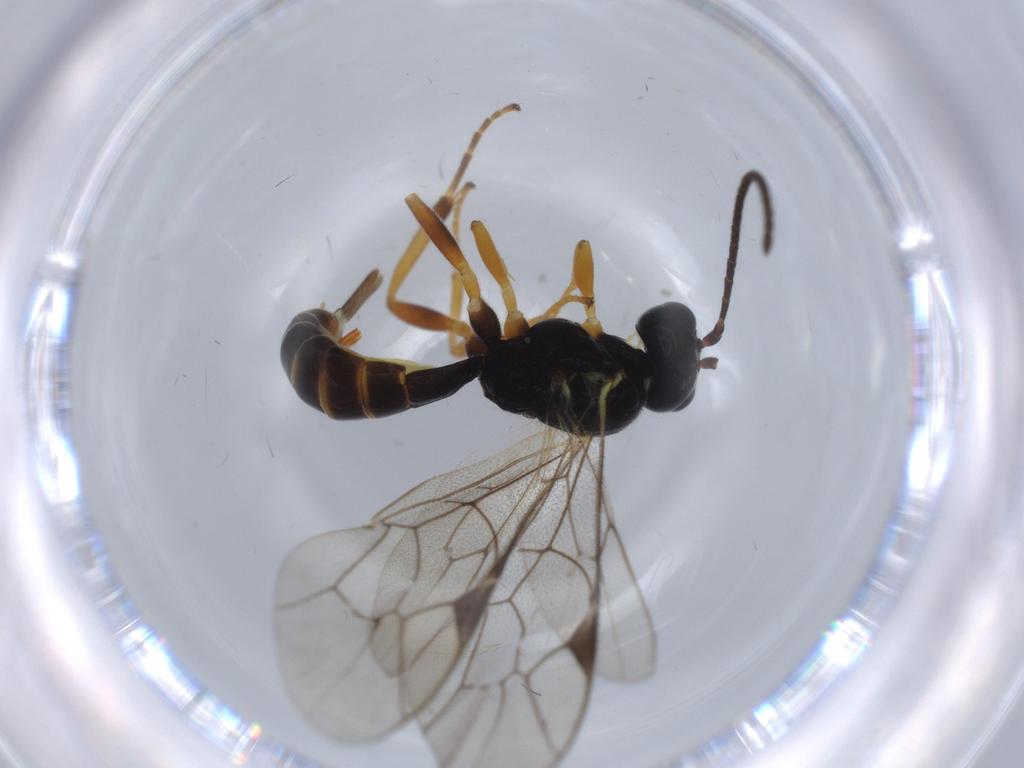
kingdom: Animalia
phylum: Arthropoda
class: Insecta
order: Hymenoptera
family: Ichneumonidae
